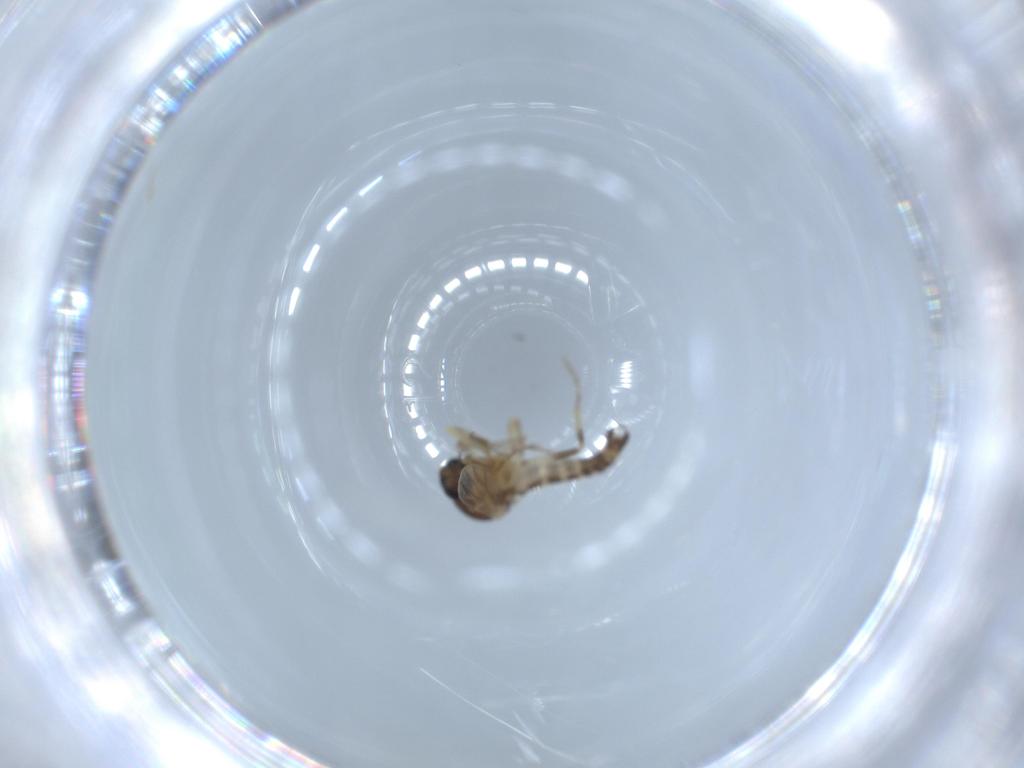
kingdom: Animalia
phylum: Arthropoda
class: Insecta
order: Diptera
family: Ceratopogonidae
